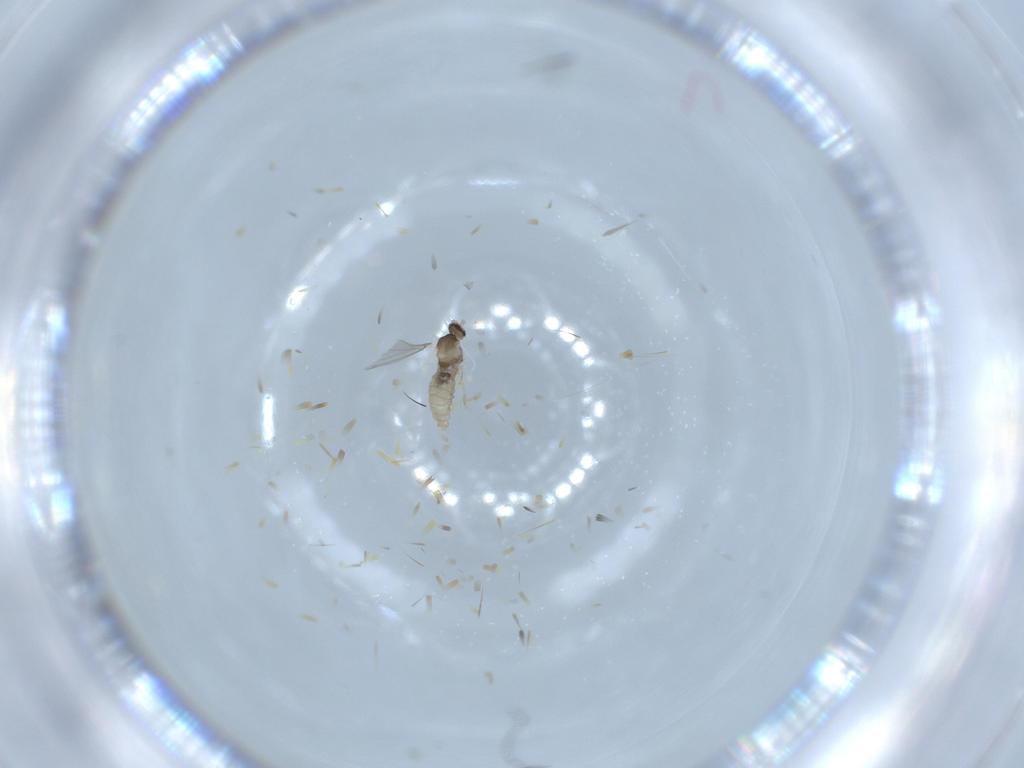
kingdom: Animalia
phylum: Arthropoda
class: Insecta
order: Diptera
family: Cecidomyiidae
